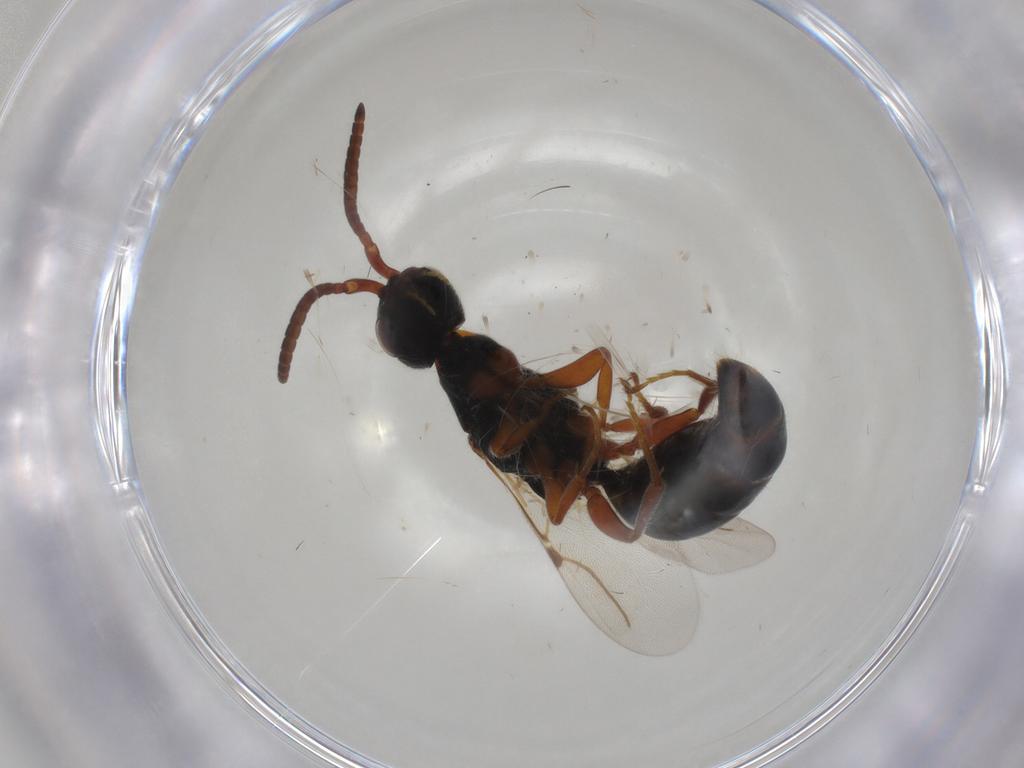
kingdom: Animalia
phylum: Arthropoda
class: Insecta
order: Hymenoptera
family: Bethylidae
